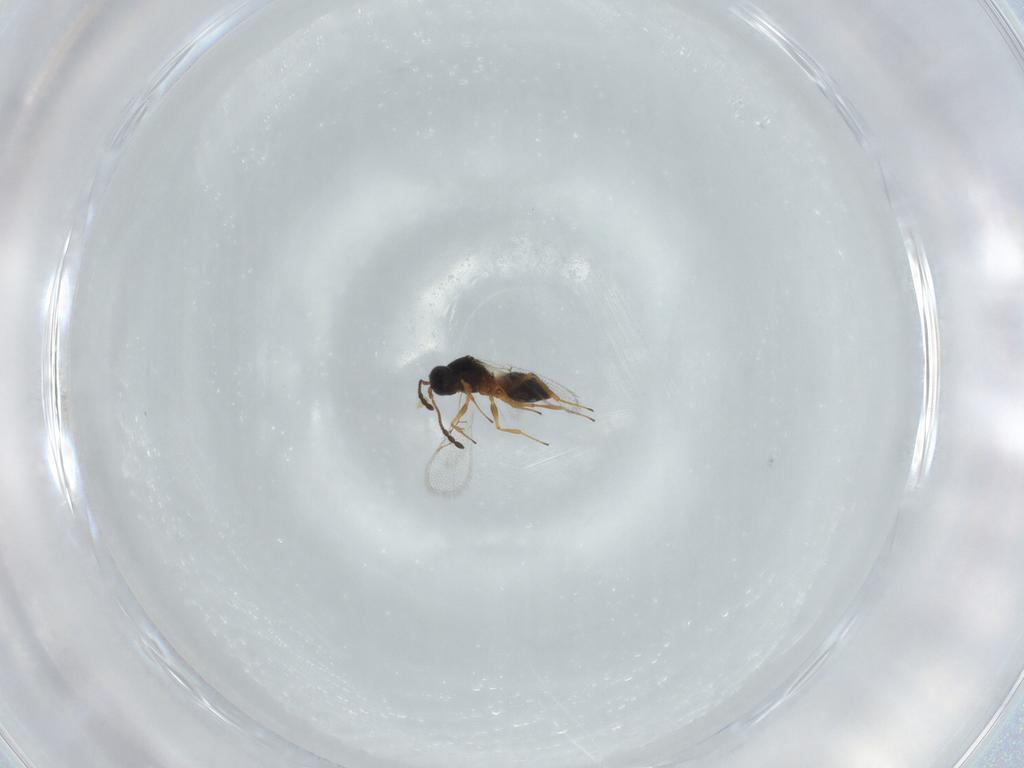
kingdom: Animalia
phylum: Arthropoda
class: Insecta
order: Hymenoptera
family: Figitidae
